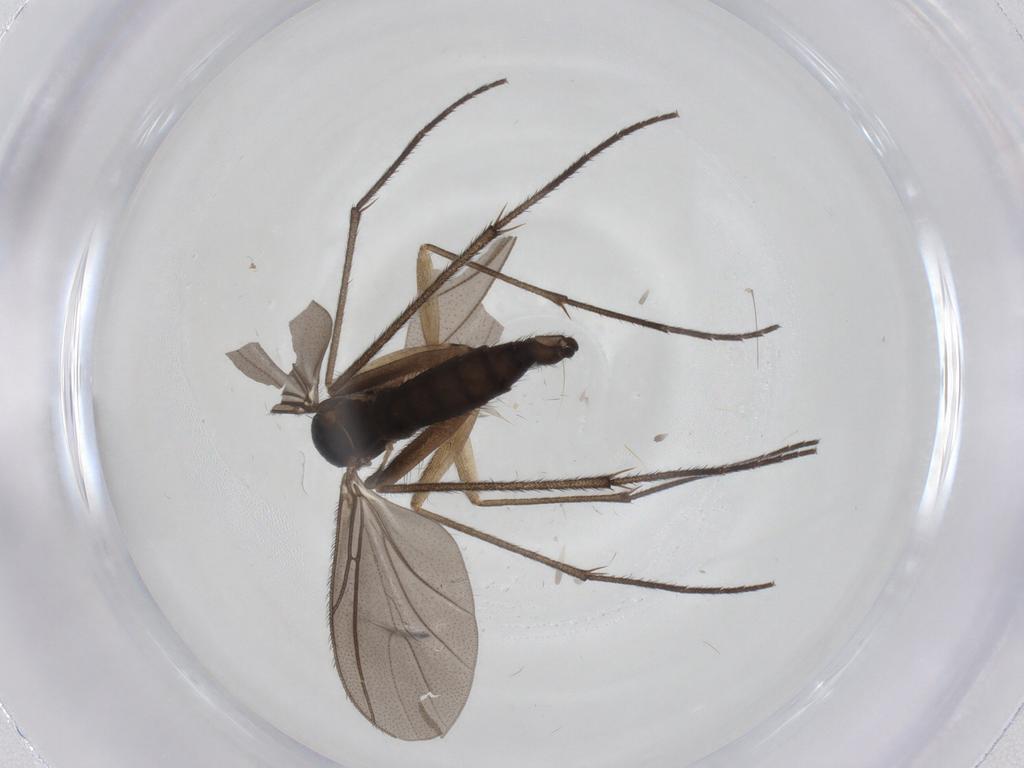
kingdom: Animalia
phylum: Arthropoda
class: Insecta
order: Diptera
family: Sciaridae
